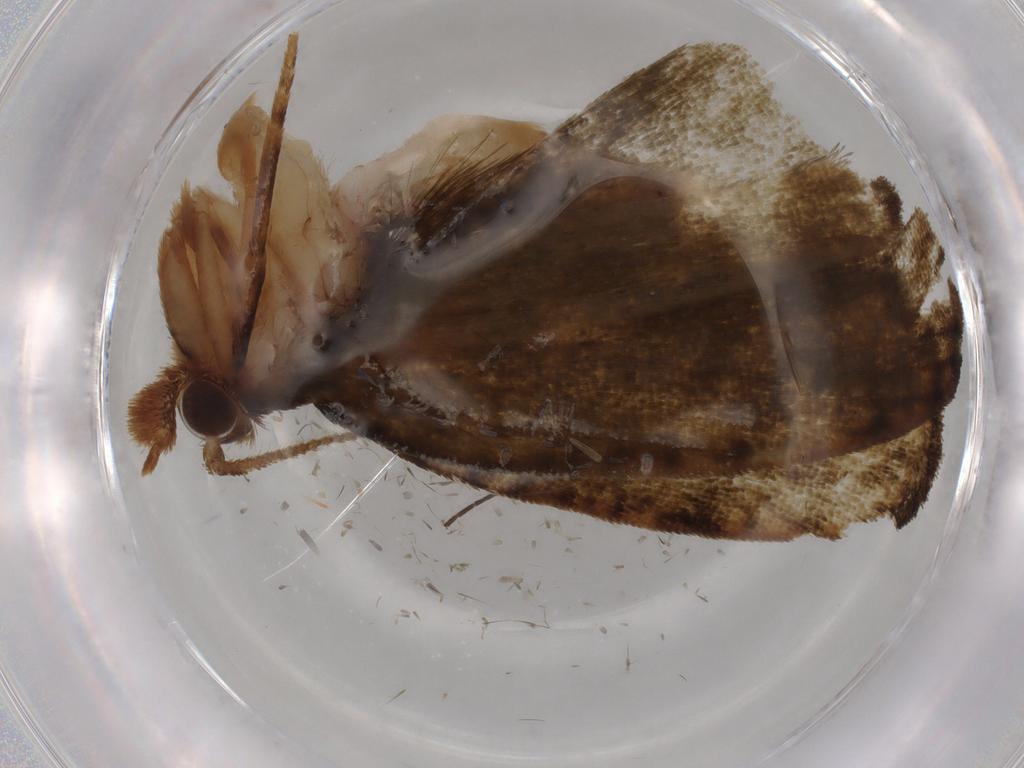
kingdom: Animalia
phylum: Arthropoda
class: Insecta
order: Lepidoptera
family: Geometridae
